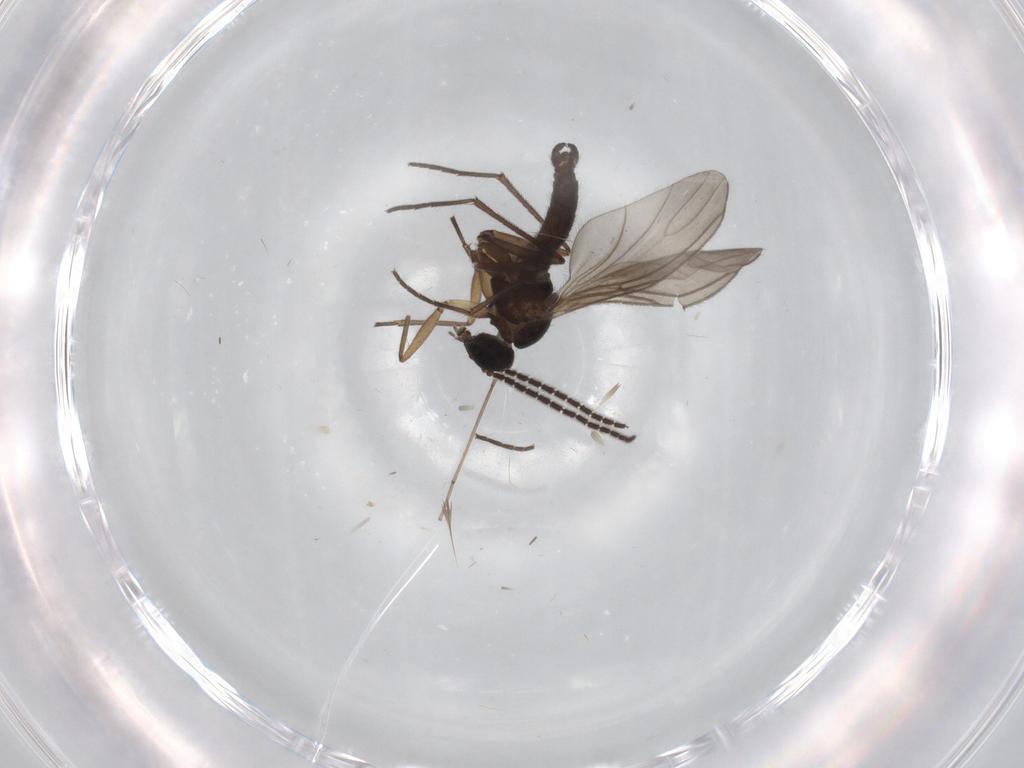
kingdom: Animalia
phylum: Arthropoda
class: Insecta
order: Diptera
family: Sciaridae
